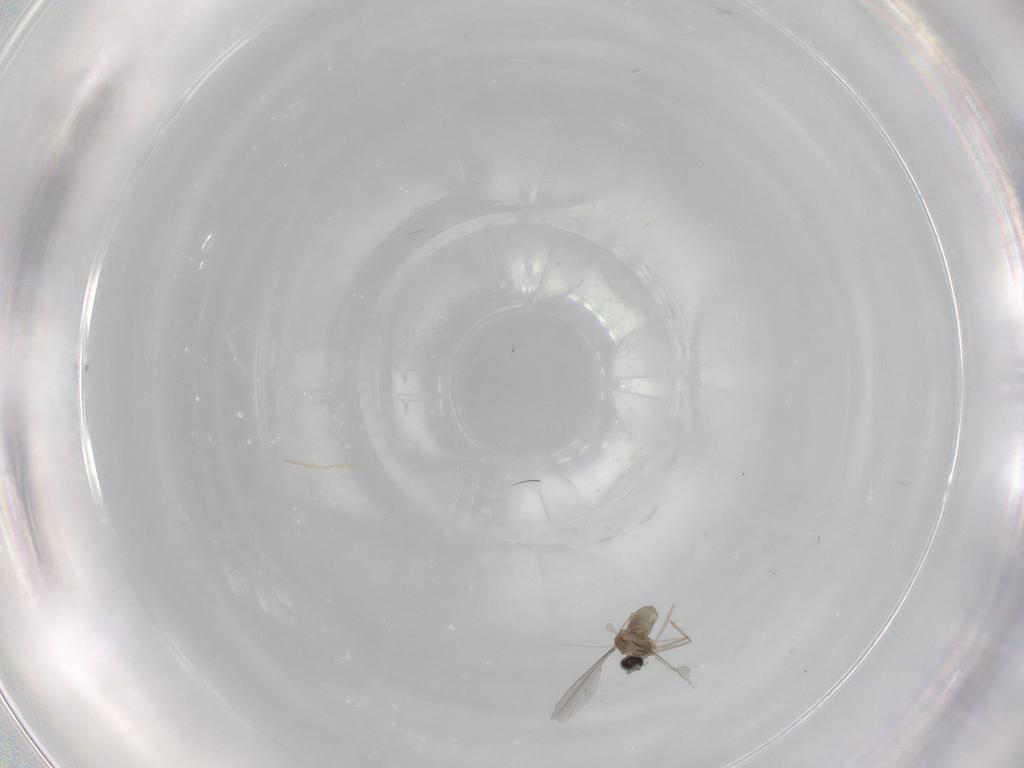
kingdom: Animalia
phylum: Arthropoda
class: Insecta
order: Diptera
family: Cecidomyiidae
